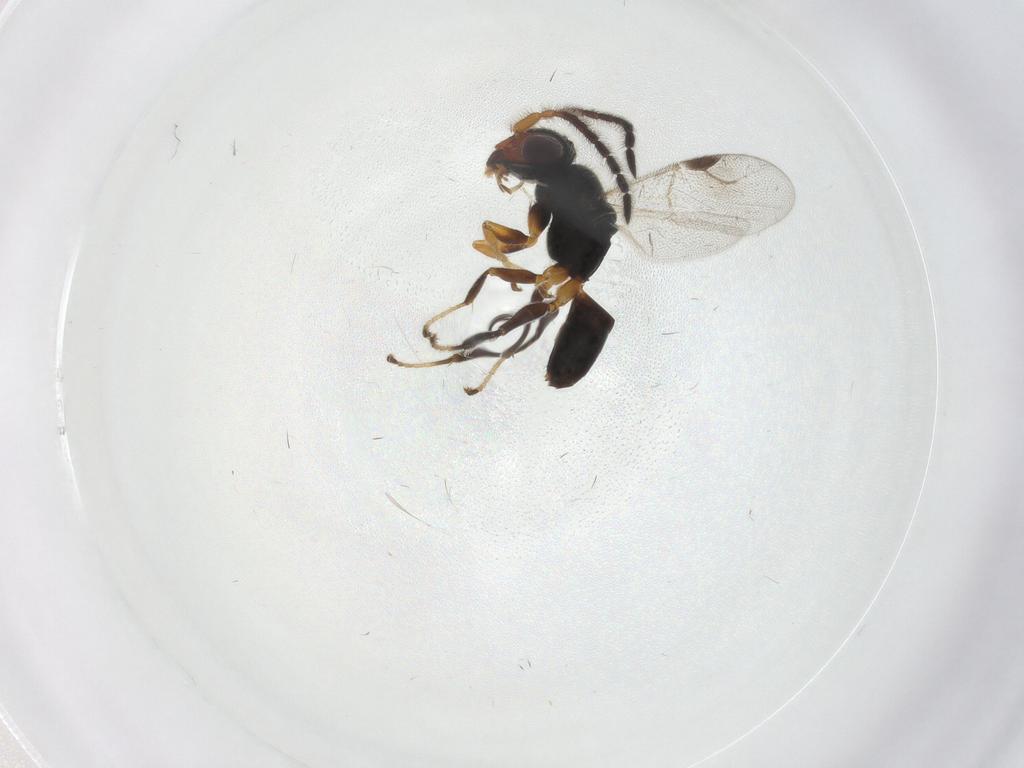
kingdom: Animalia
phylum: Arthropoda
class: Insecta
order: Hymenoptera
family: Dryinidae
